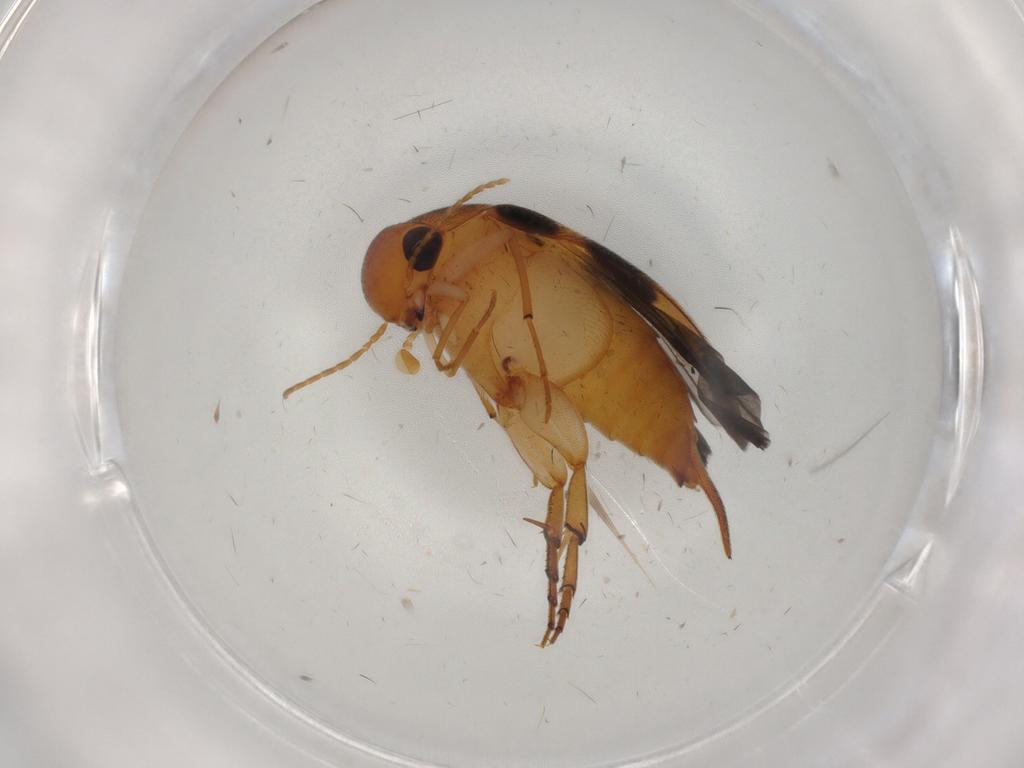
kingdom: Animalia
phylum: Arthropoda
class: Insecta
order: Coleoptera
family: Mordellidae
